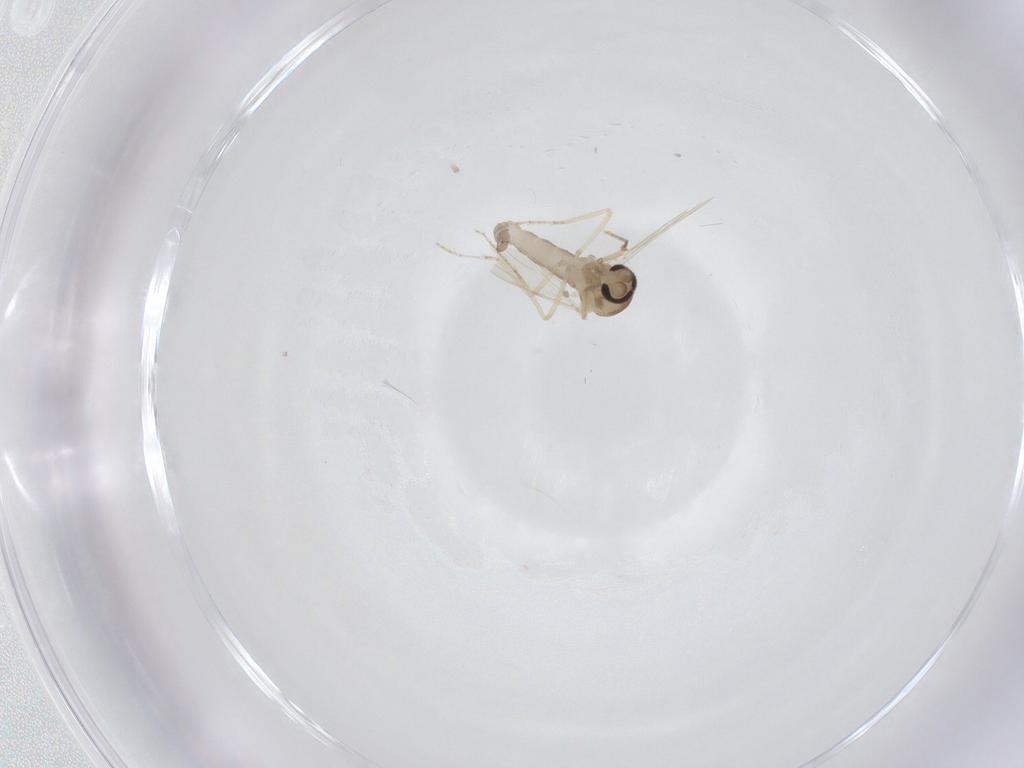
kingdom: Animalia
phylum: Arthropoda
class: Insecta
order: Diptera
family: Ceratopogonidae
